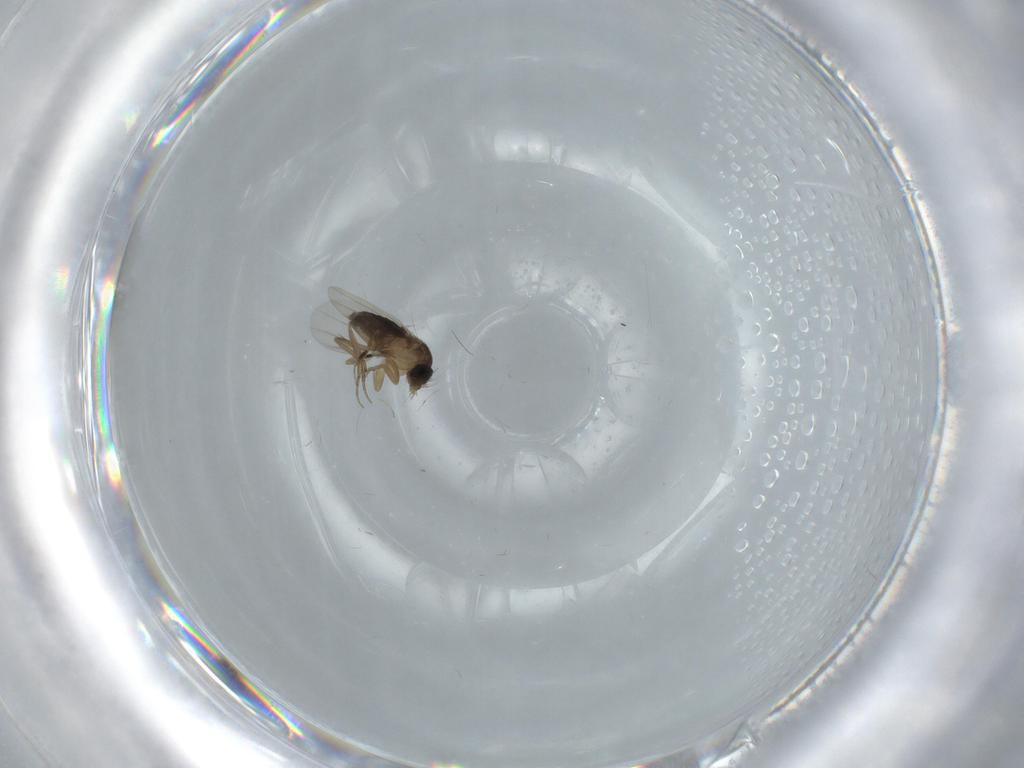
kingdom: Animalia
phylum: Arthropoda
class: Insecta
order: Diptera
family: Phoridae
